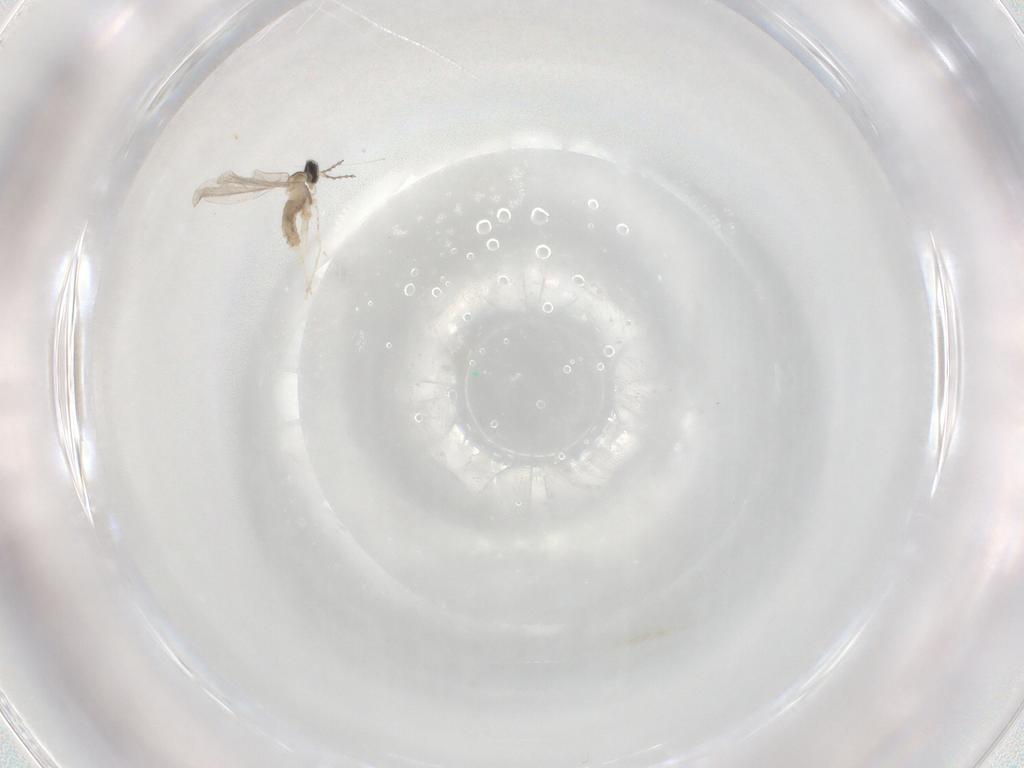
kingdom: Animalia
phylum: Arthropoda
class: Insecta
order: Diptera
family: Cecidomyiidae
